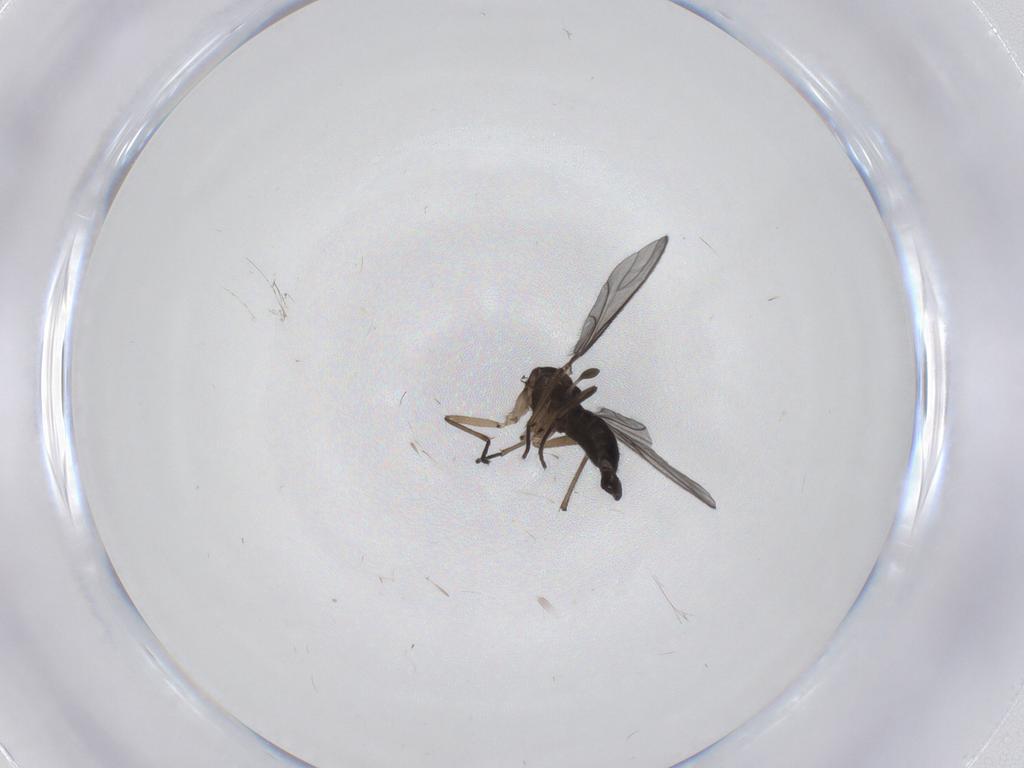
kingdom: Animalia
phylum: Arthropoda
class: Insecta
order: Diptera
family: Sciaridae
